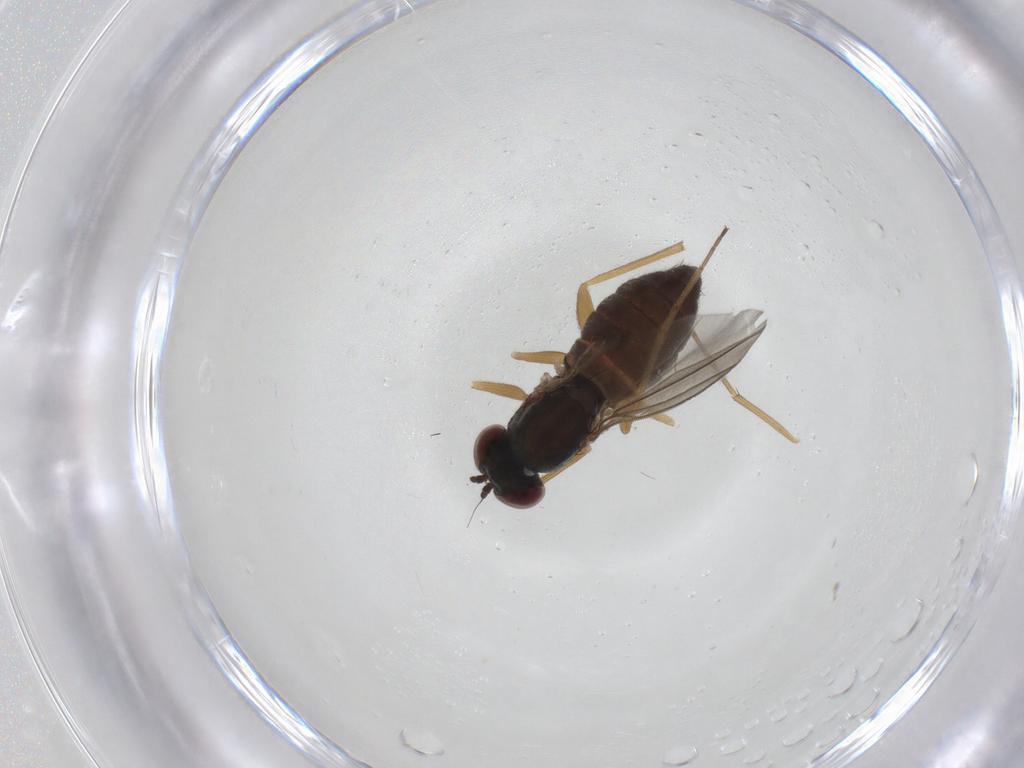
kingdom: Animalia
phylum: Arthropoda
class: Insecta
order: Diptera
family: Dolichopodidae
